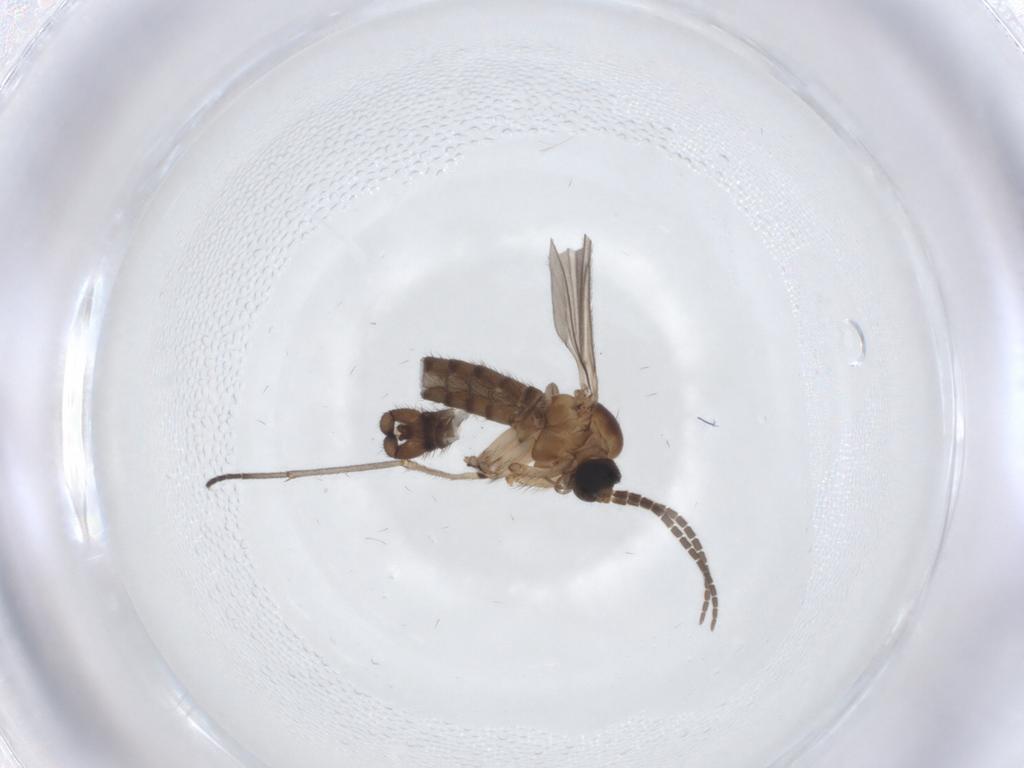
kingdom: Animalia
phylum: Arthropoda
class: Insecta
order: Diptera
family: Sciaridae
